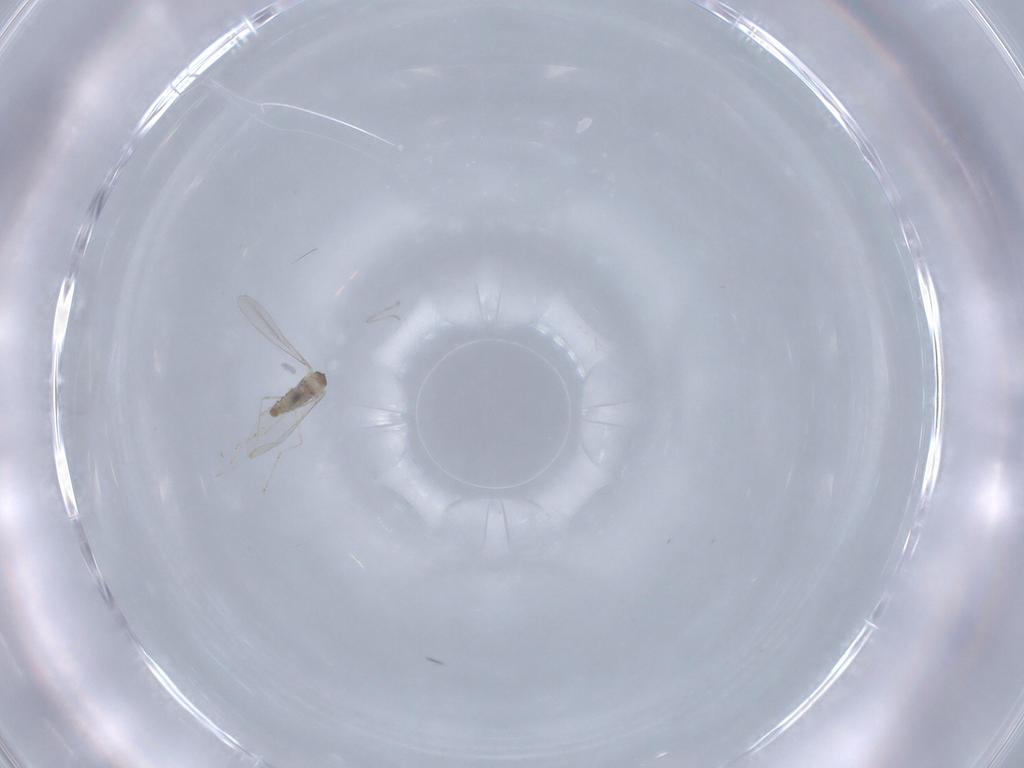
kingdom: Animalia
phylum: Arthropoda
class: Insecta
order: Diptera
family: Cecidomyiidae
